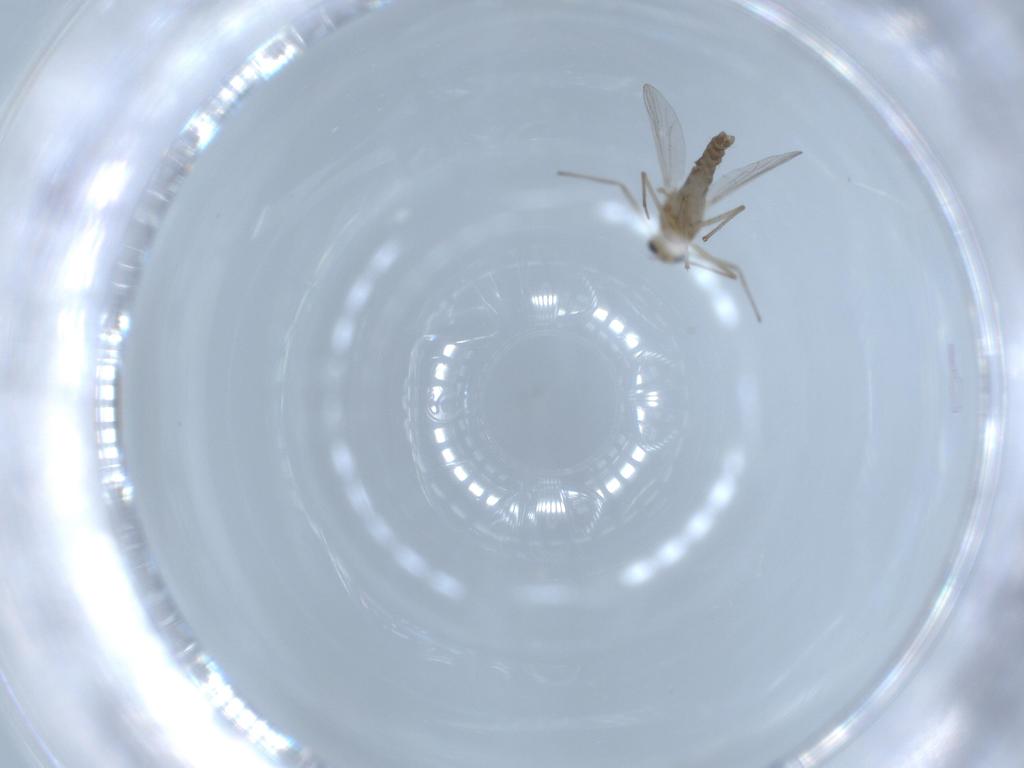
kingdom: Animalia
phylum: Arthropoda
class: Insecta
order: Diptera
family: Chironomidae
